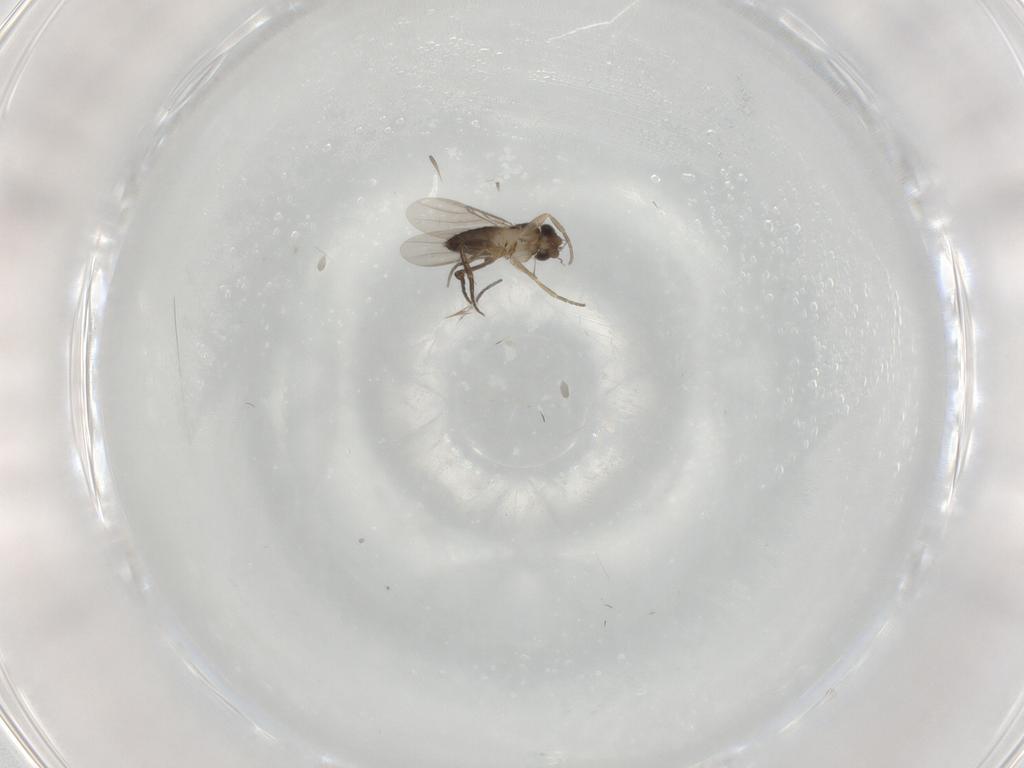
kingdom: Animalia
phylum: Arthropoda
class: Insecta
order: Diptera
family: Phoridae
